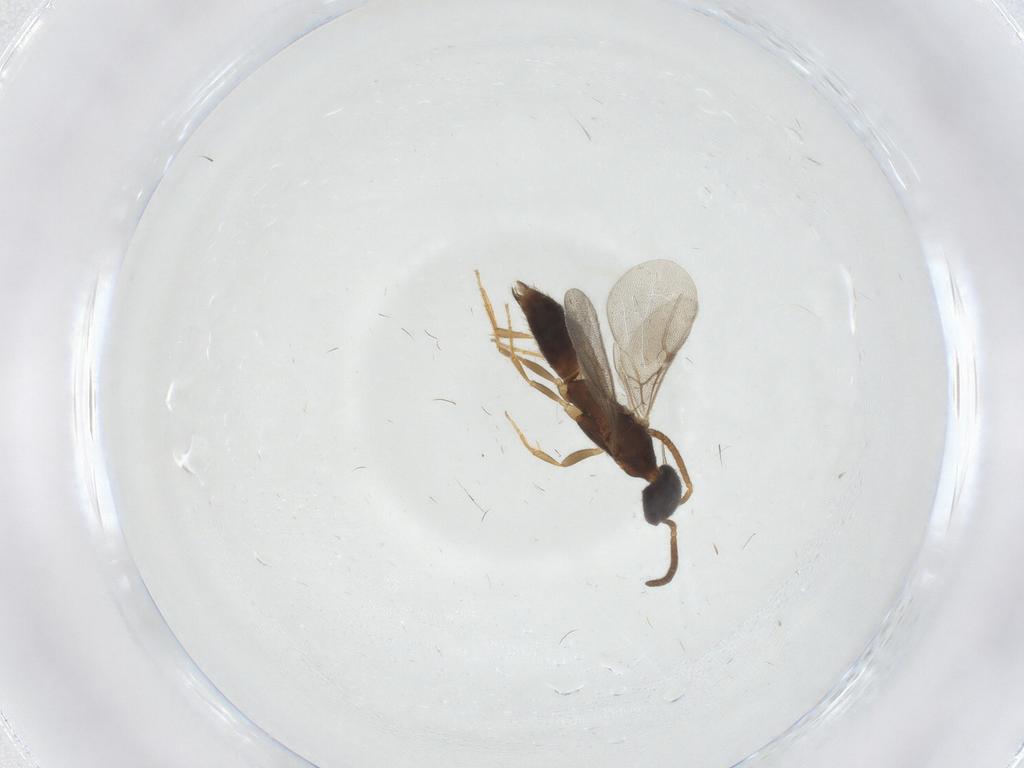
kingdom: Animalia
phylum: Arthropoda
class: Insecta
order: Hymenoptera
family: Bethylidae
